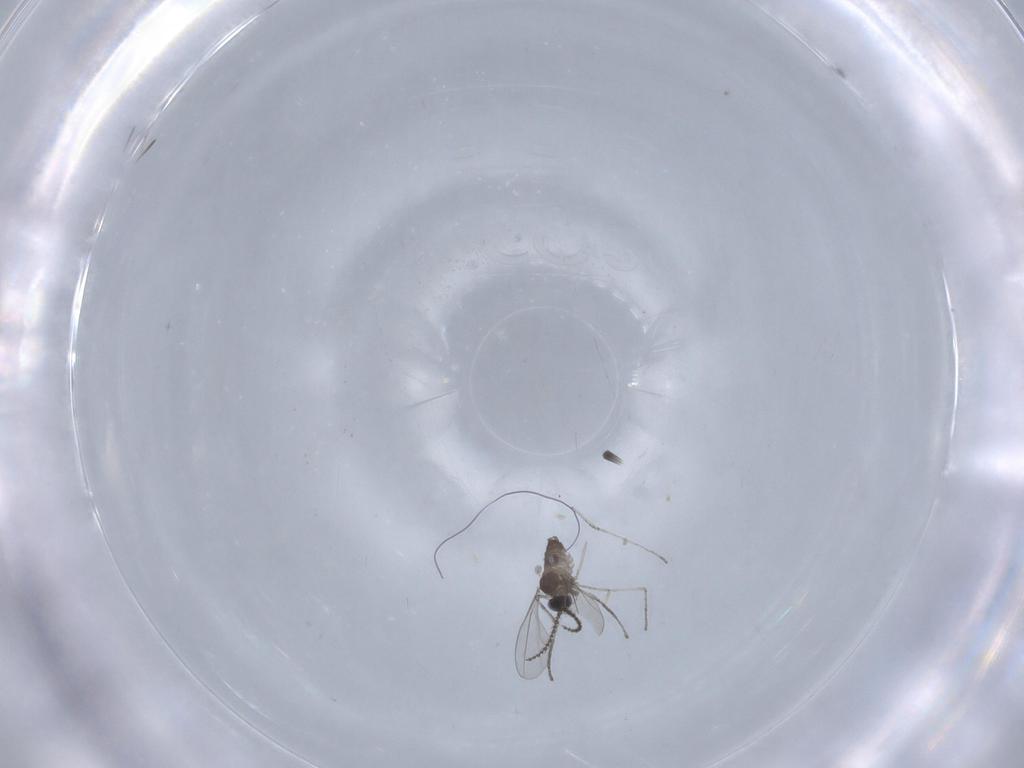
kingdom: Animalia
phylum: Arthropoda
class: Insecta
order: Diptera
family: Cecidomyiidae
